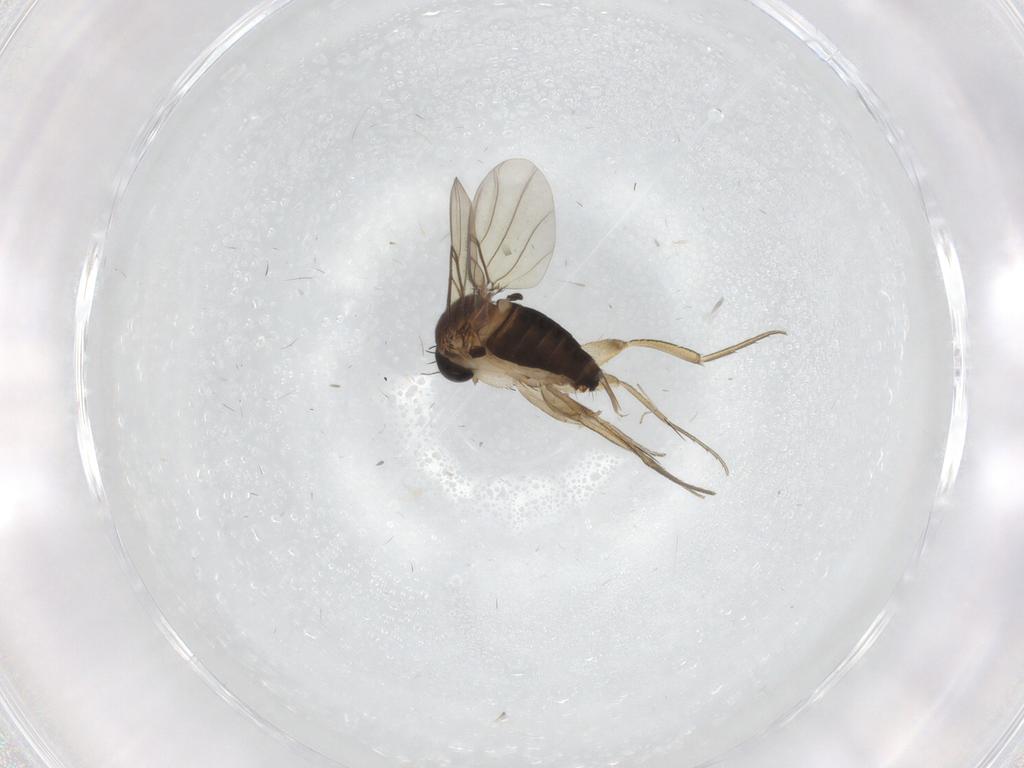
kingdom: Animalia
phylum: Arthropoda
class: Insecta
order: Diptera
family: Phoridae
